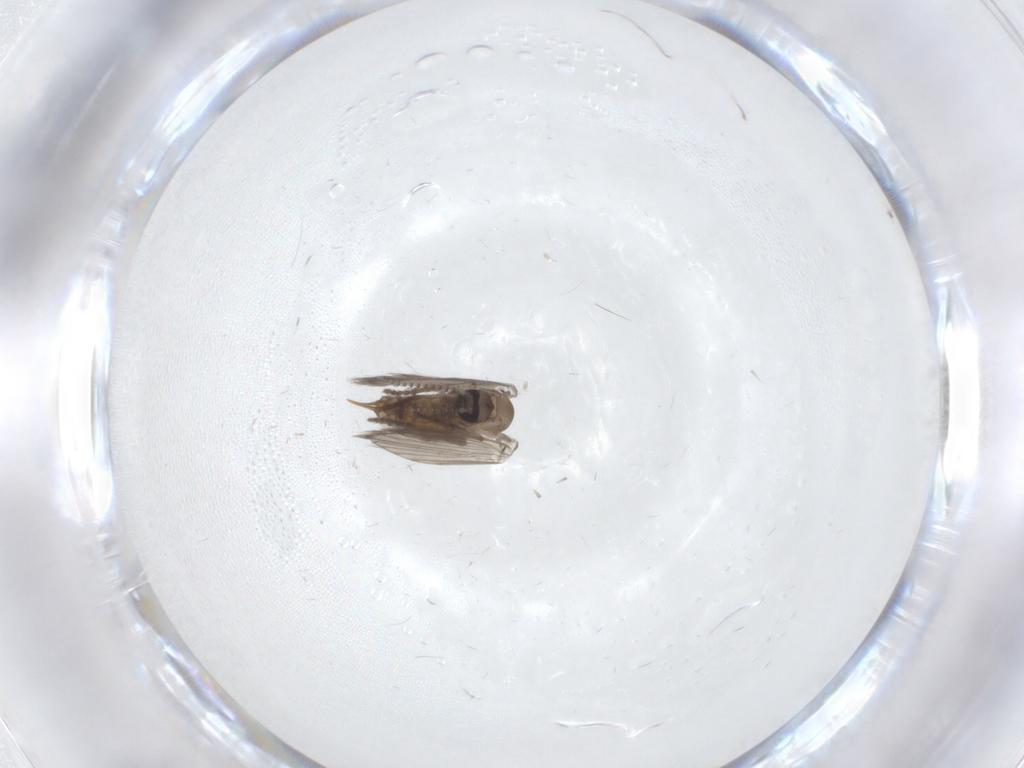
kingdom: Animalia
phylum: Arthropoda
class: Insecta
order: Diptera
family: Psychodidae
